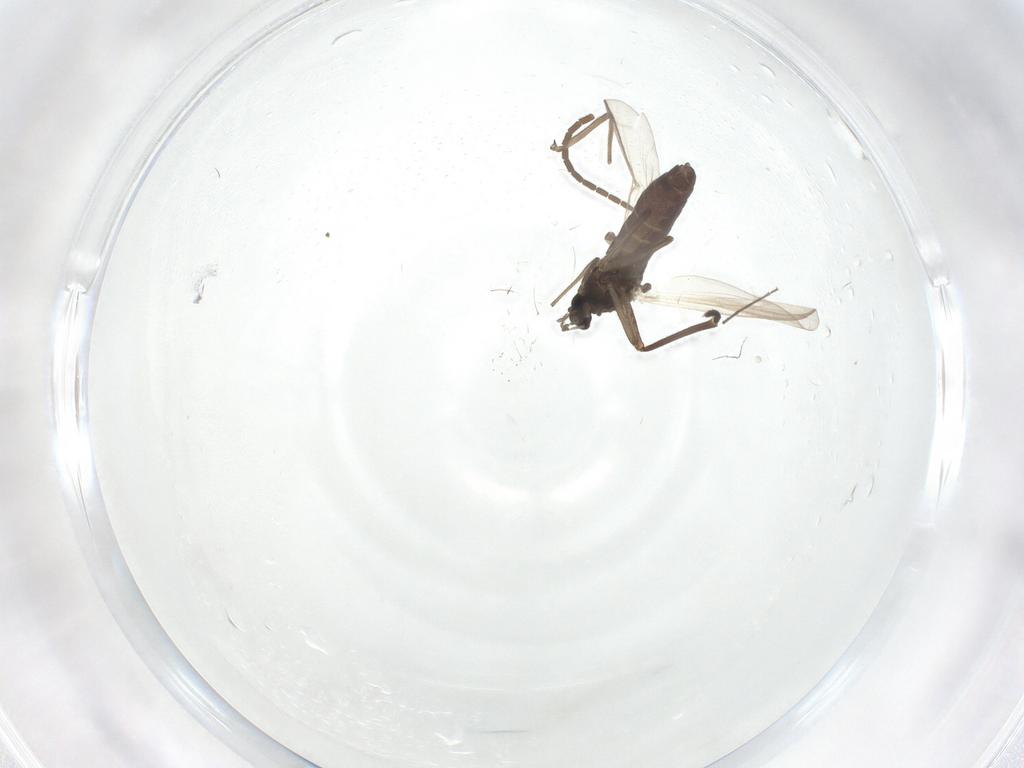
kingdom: Animalia
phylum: Arthropoda
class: Insecta
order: Diptera
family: Sciaridae
